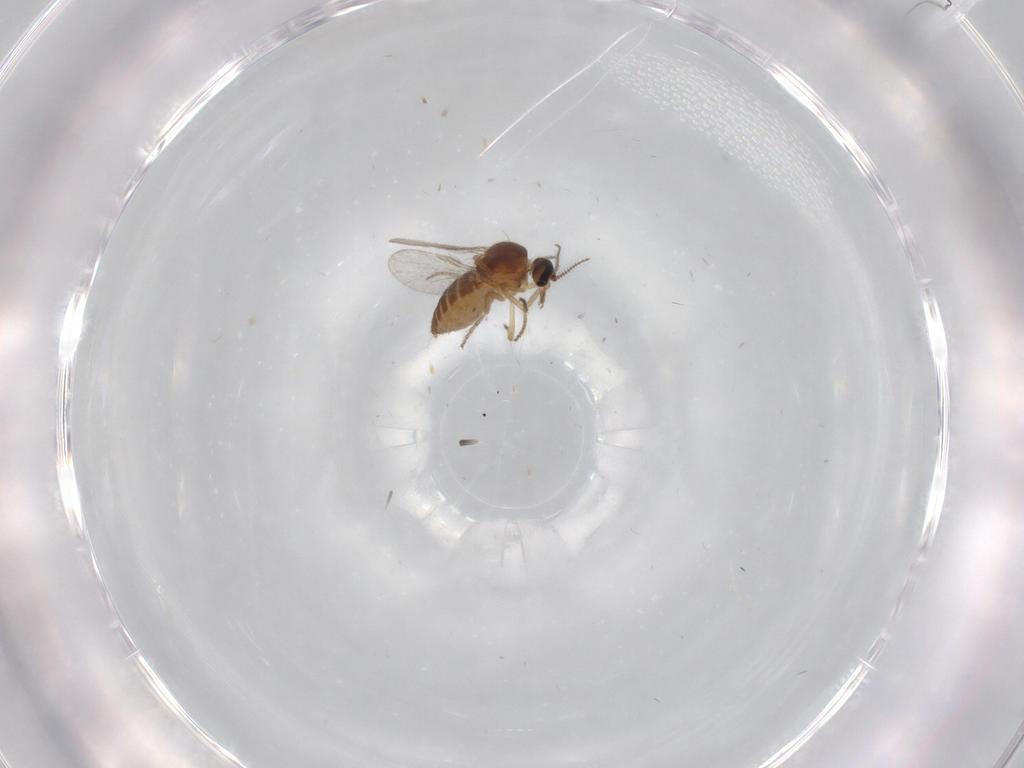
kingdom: Animalia
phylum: Arthropoda
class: Insecta
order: Diptera
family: Ceratopogonidae
